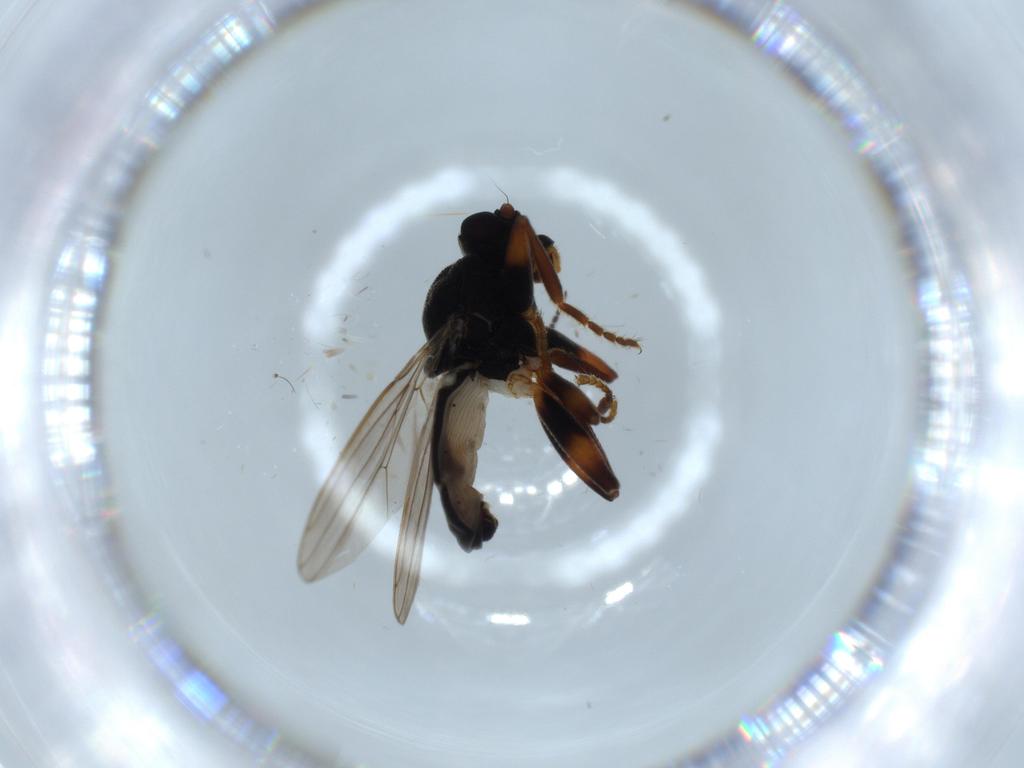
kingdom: Animalia
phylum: Arthropoda
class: Insecta
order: Diptera
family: Sphaeroceridae
